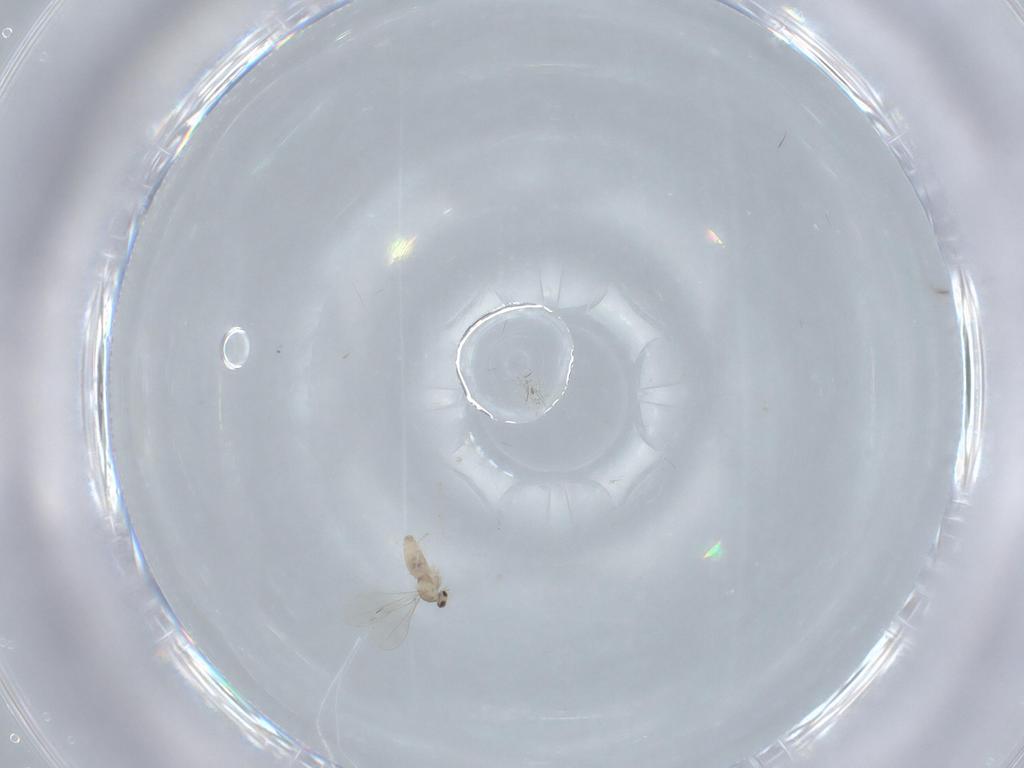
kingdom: Animalia
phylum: Arthropoda
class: Insecta
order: Diptera
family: Cecidomyiidae
